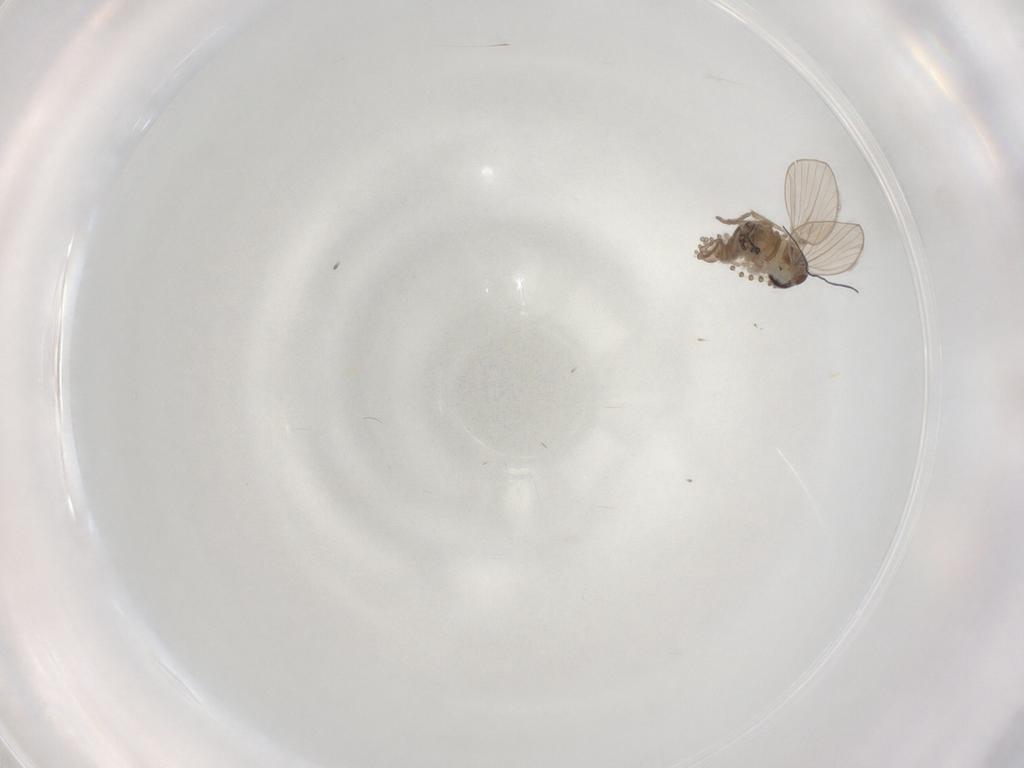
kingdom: Animalia
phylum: Arthropoda
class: Insecta
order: Diptera
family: Psychodidae
